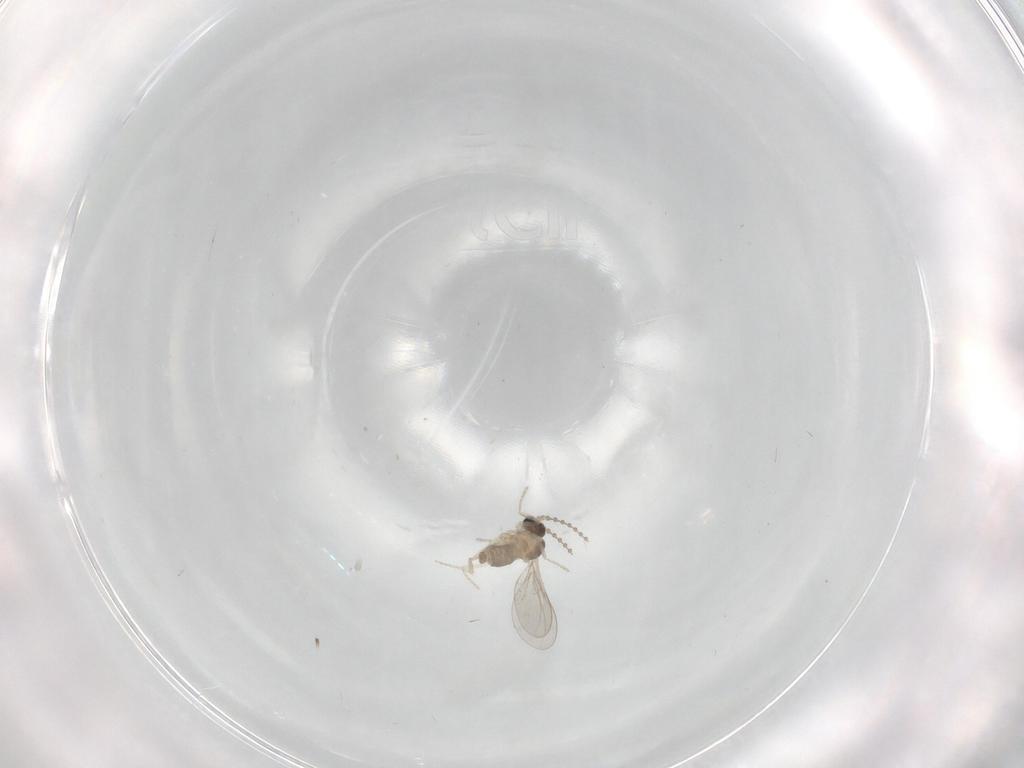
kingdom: Animalia
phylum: Arthropoda
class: Insecta
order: Diptera
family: Cecidomyiidae
